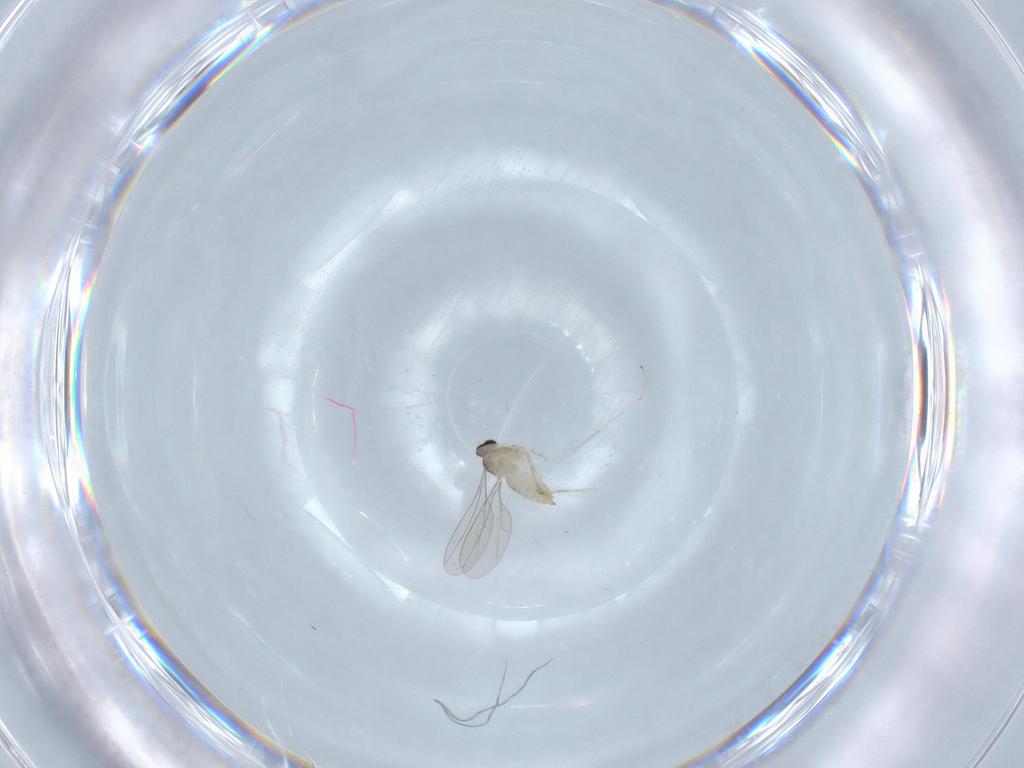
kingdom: Animalia
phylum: Arthropoda
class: Insecta
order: Diptera
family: Cecidomyiidae
